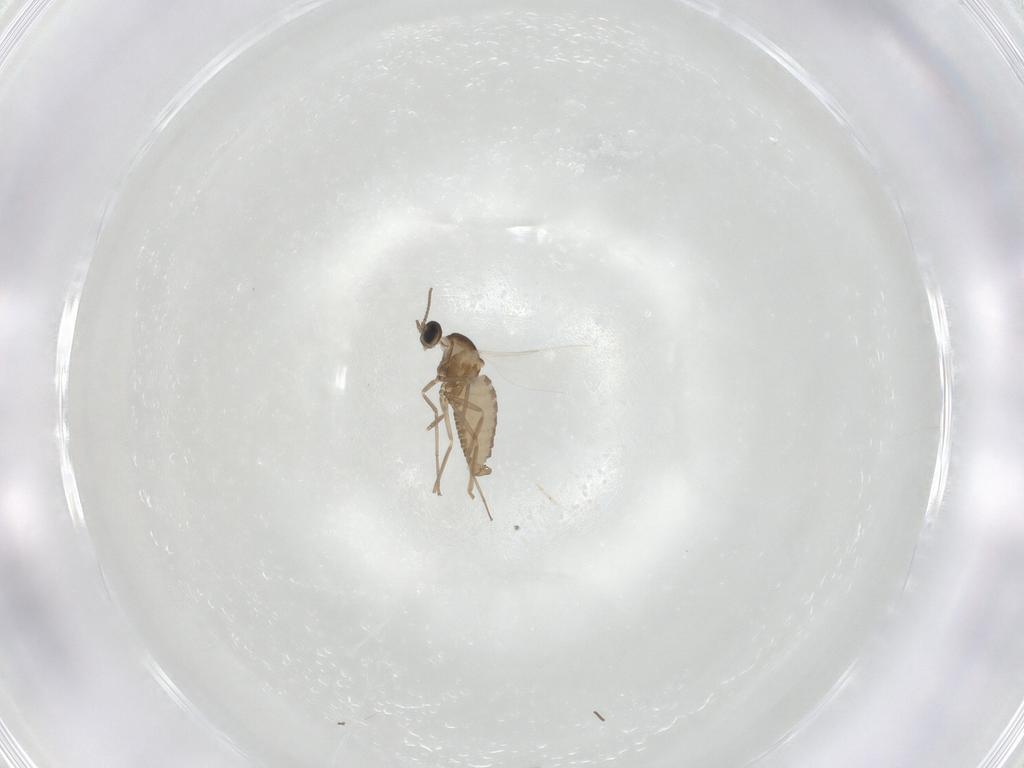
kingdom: Animalia
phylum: Arthropoda
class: Insecta
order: Diptera
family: Cecidomyiidae
